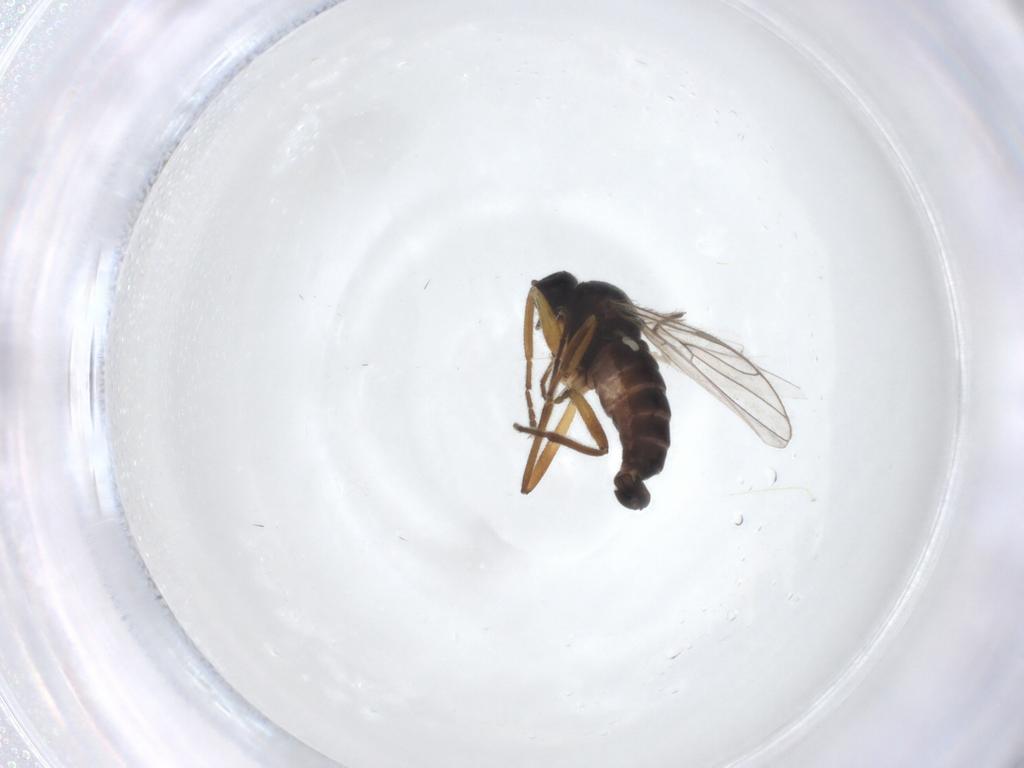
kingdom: Animalia
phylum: Arthropoda
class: Insecta
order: Diptera
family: Hybotidae
